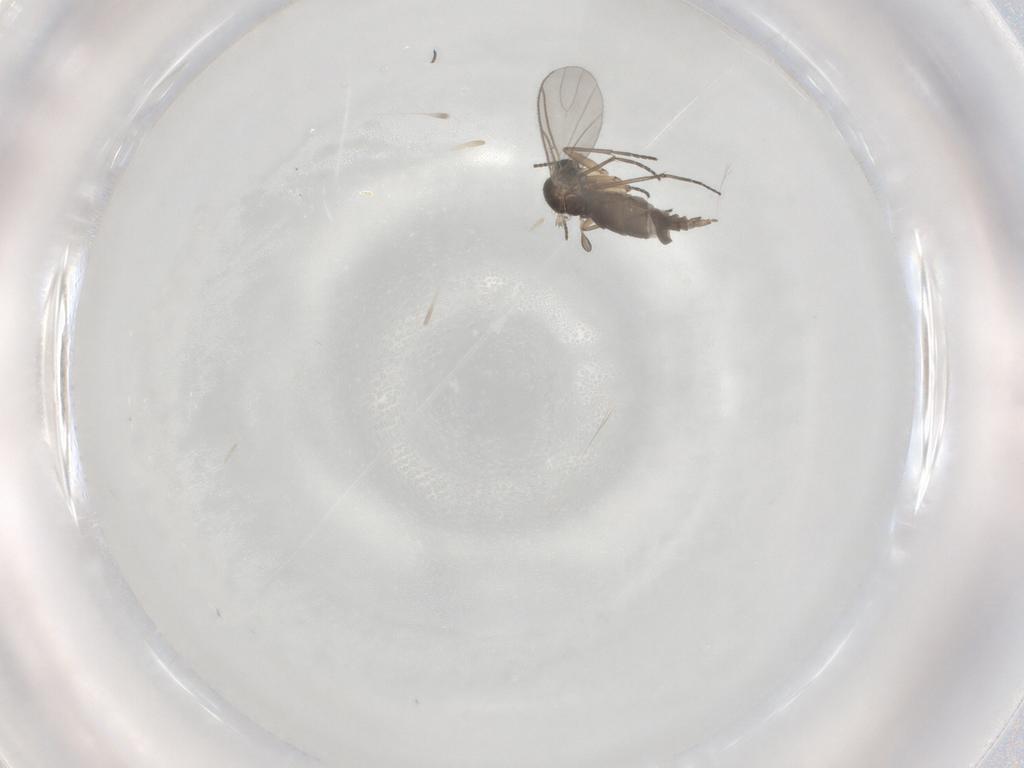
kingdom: Animalia
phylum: Arthropoda
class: Insecta
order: Diptera
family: Sciaridae
